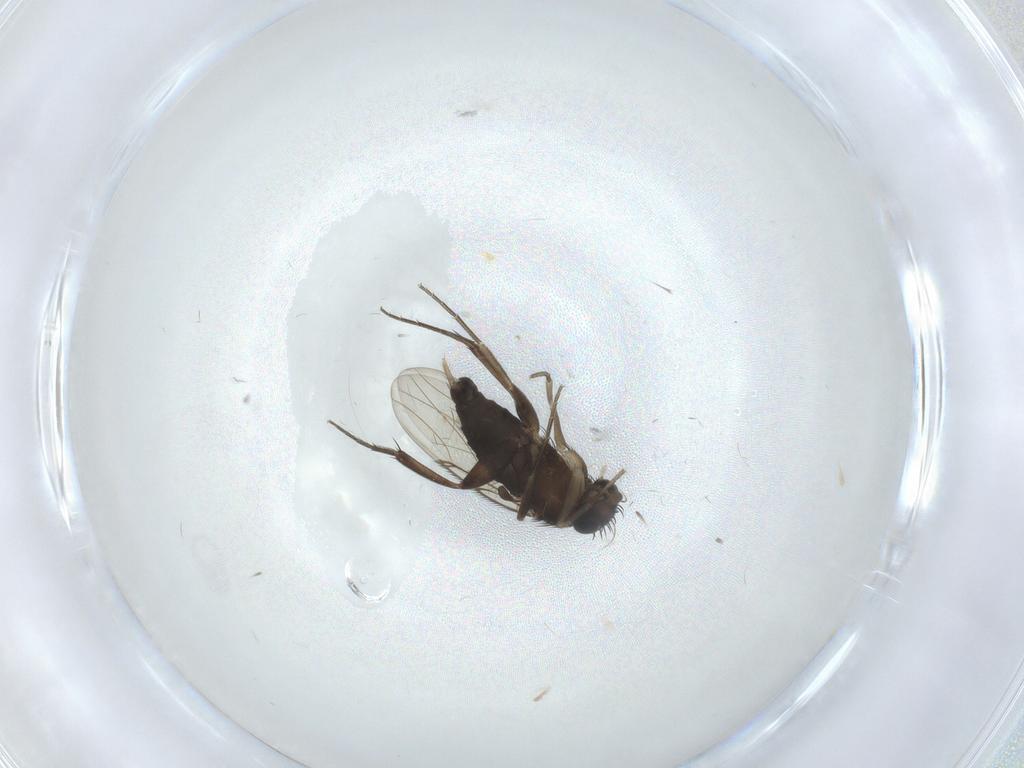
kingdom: Animalia
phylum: Arthropoda
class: Insecta
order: Diptera
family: Phoridae
